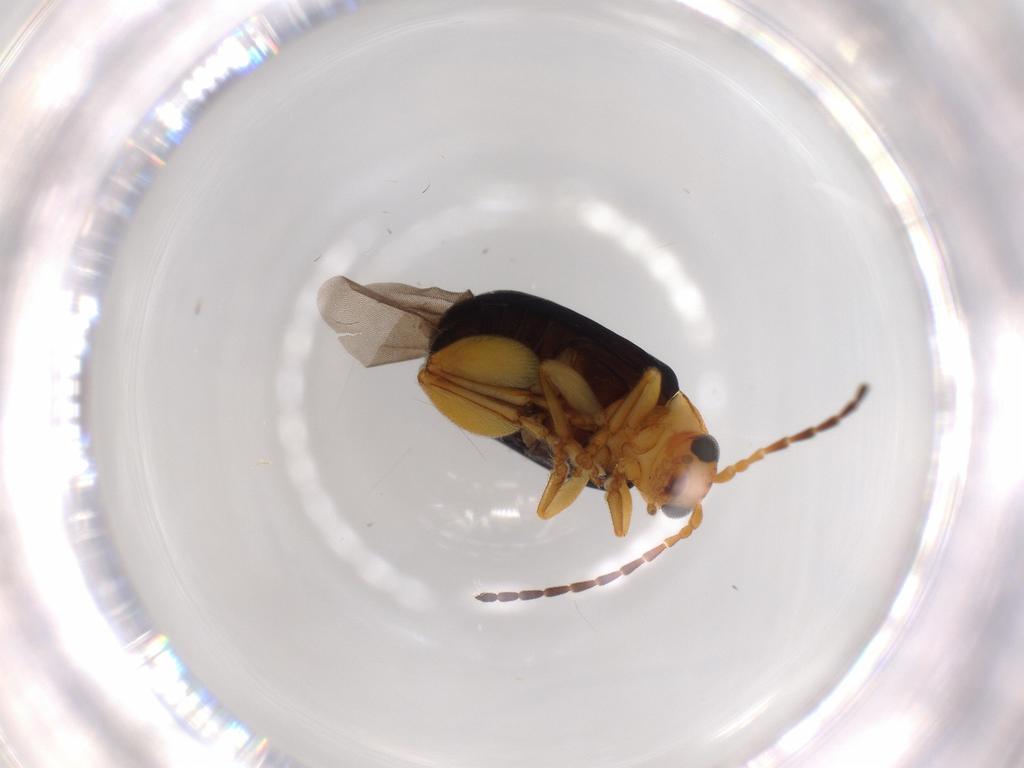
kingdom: Animalia
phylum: Arthropoda
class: Insecta
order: Coleoptera
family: Chrysomelidae
